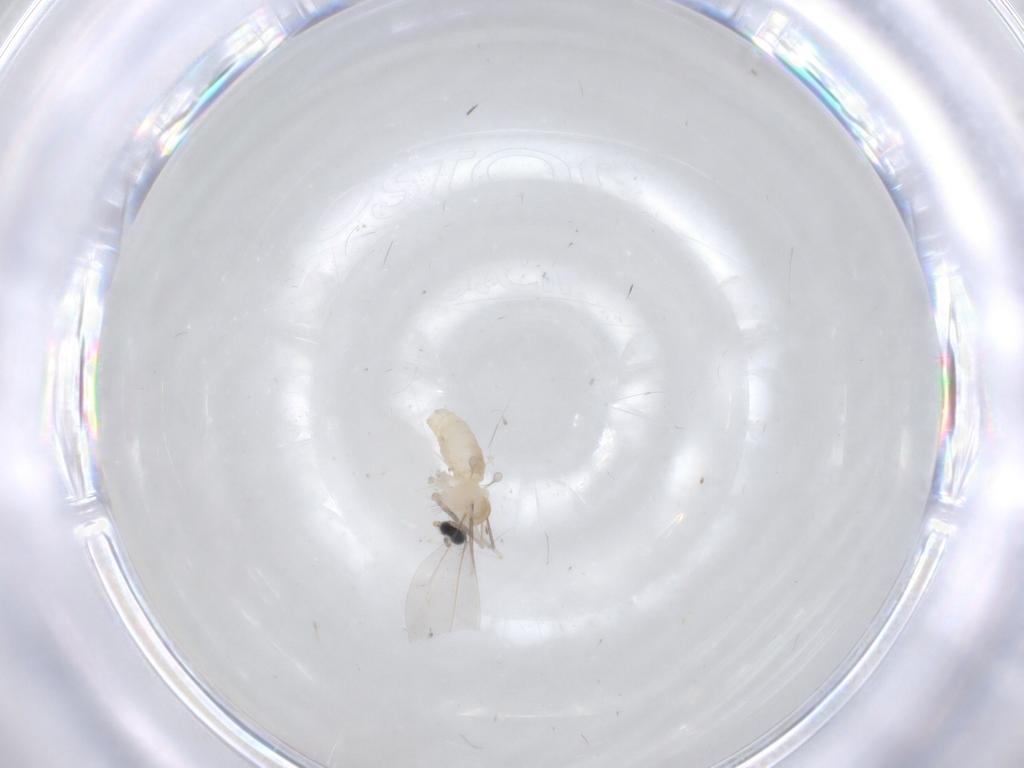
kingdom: Animalia
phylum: Arthropoda
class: Insecta
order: Diptera
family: Cecidomyiidae
